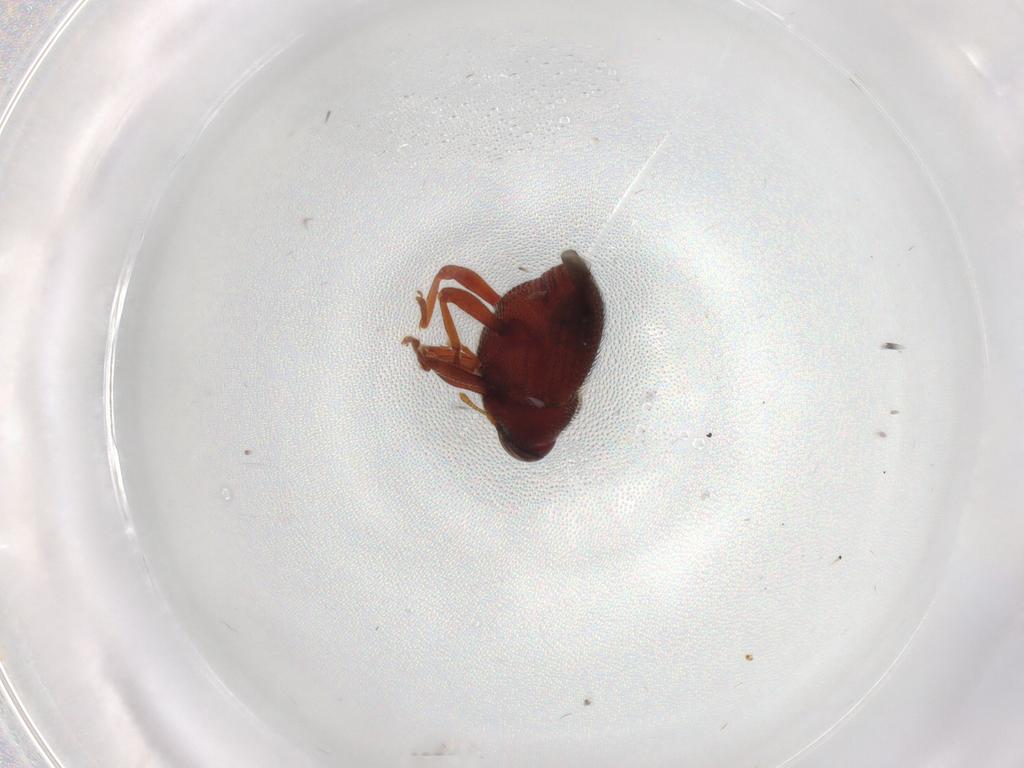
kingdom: Animalia
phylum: Arthropoda
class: Insecta
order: Coleoptera
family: Curculionidae
